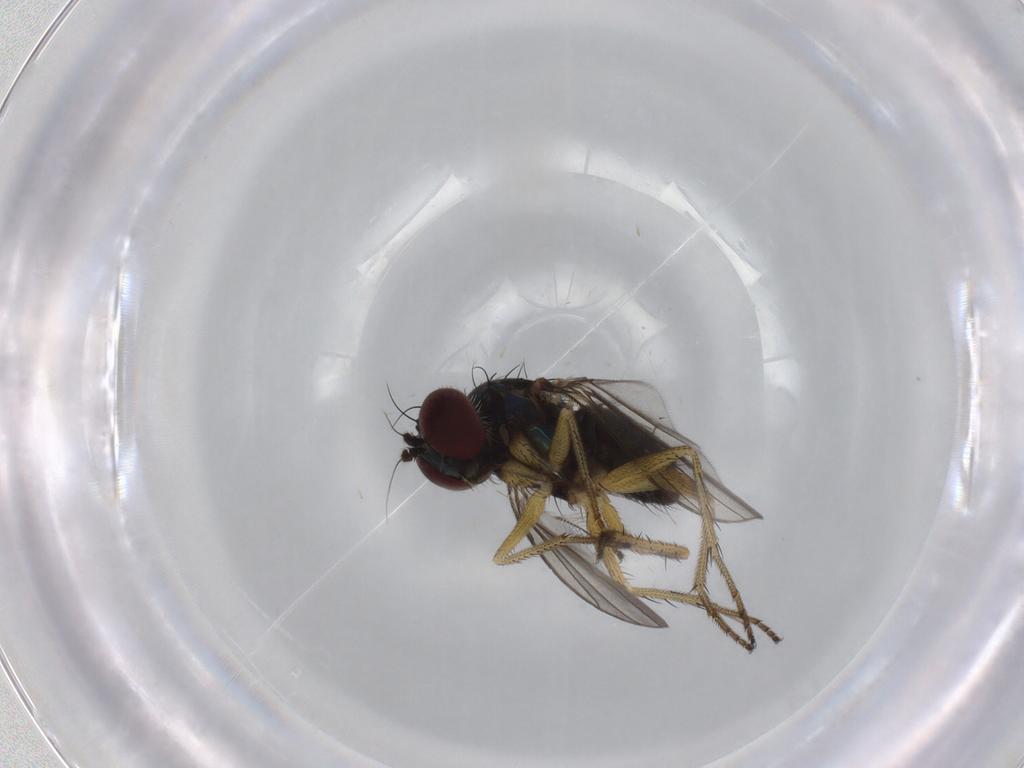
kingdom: Animalia
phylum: Arthropoda
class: Insecta
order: Diptera
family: Dolichopodidae
